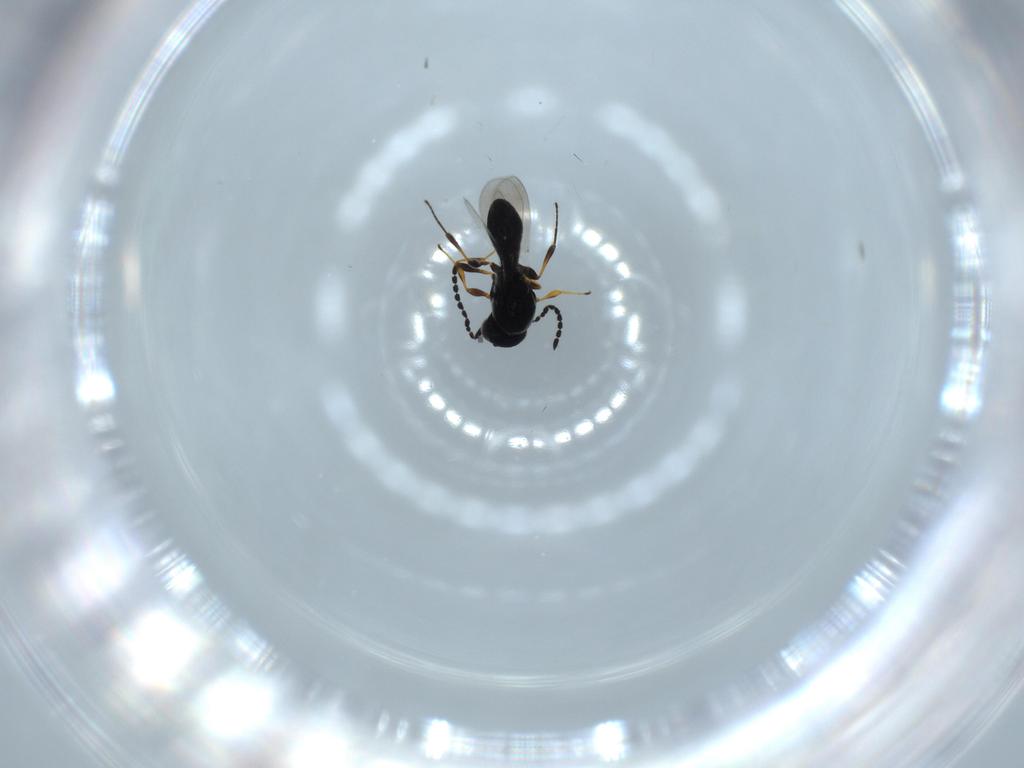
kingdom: Animalia
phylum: Arthropoda
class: Insecta
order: Hymenoptera
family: Platygastridae
